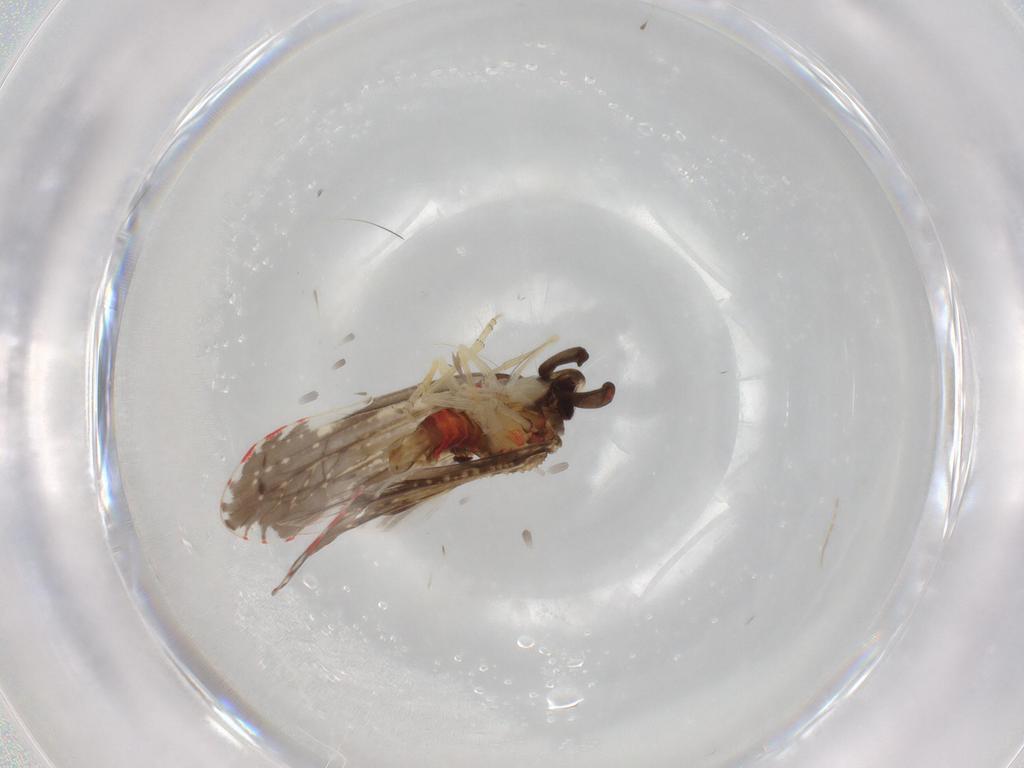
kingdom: Animalia
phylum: Arthropoda
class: Insecta
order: Hemiptera
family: Derbidae
